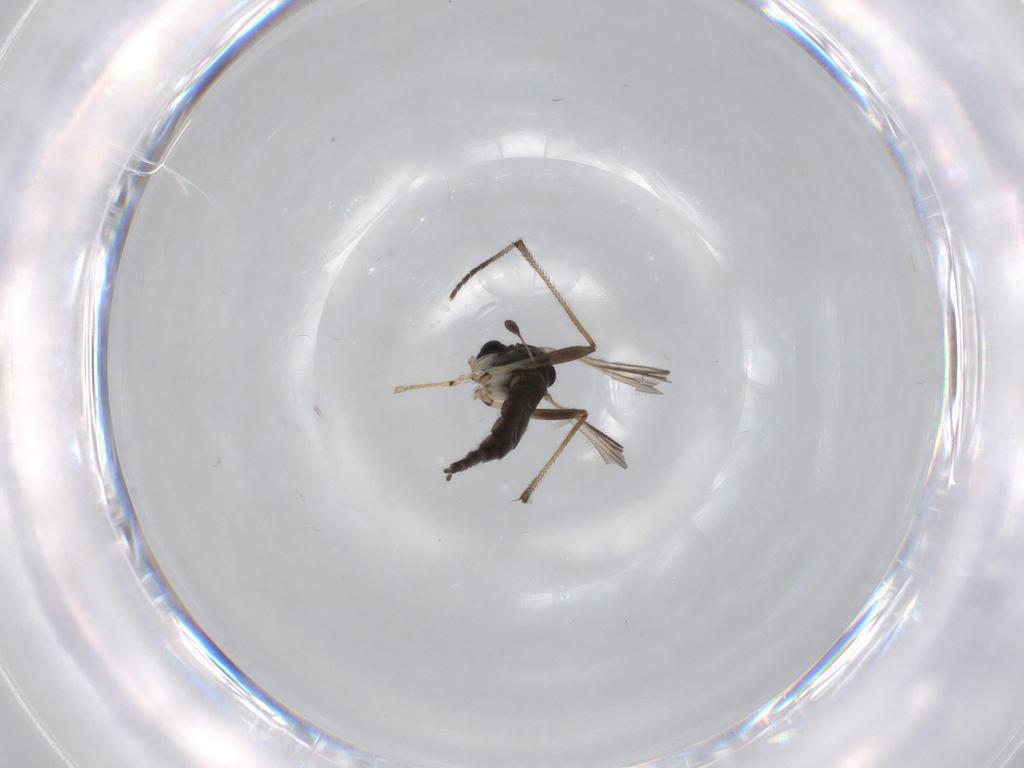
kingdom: Animalia
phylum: Arthropoda
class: Insecta
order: Diptera
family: Sciaridae
